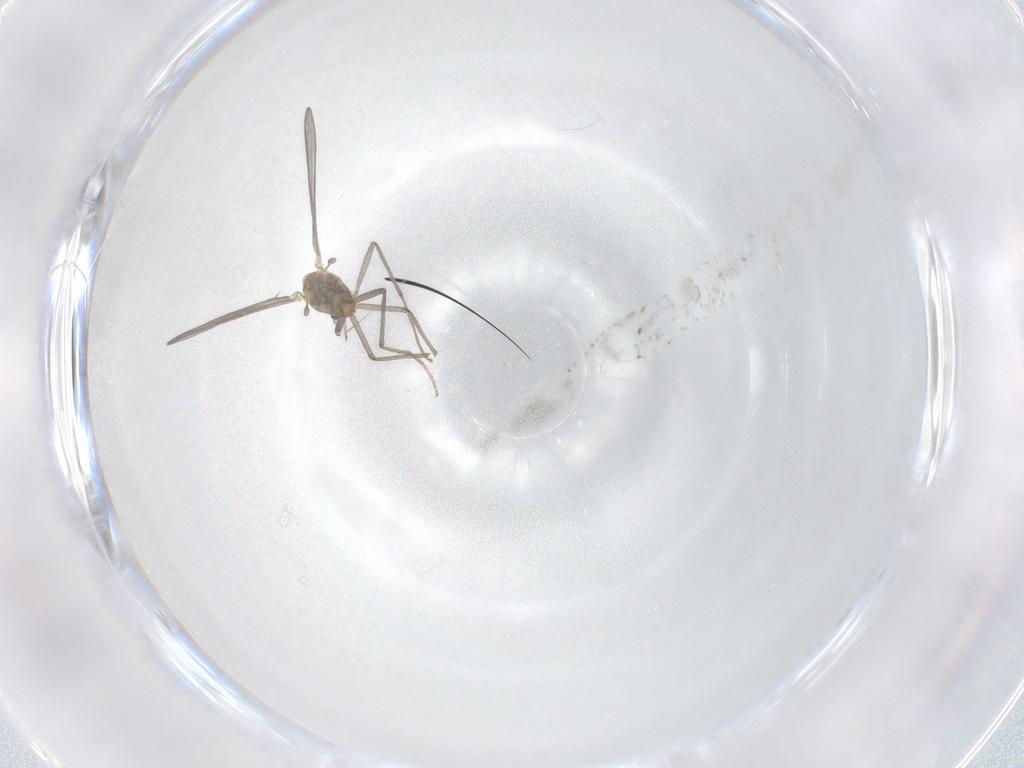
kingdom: Animalia
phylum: Arthropoda
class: Insecta
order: Diptera
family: Chironomidae
